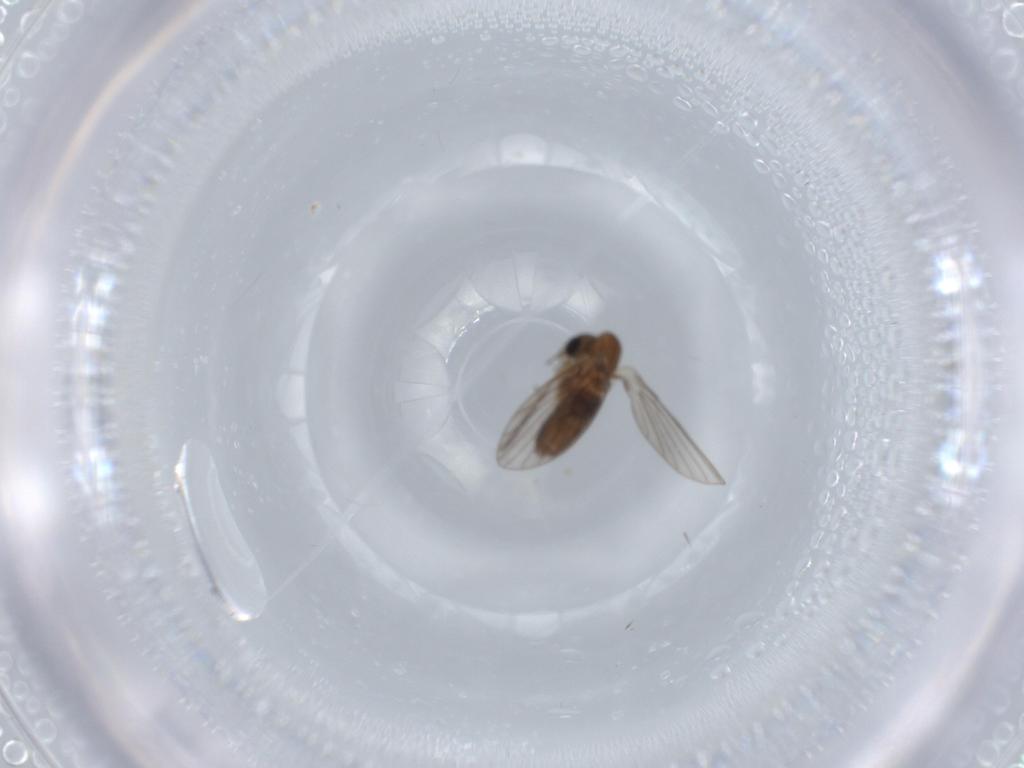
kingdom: Animalia
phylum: Arthropoda
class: Insecta
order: Diptera
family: Psychodidae
